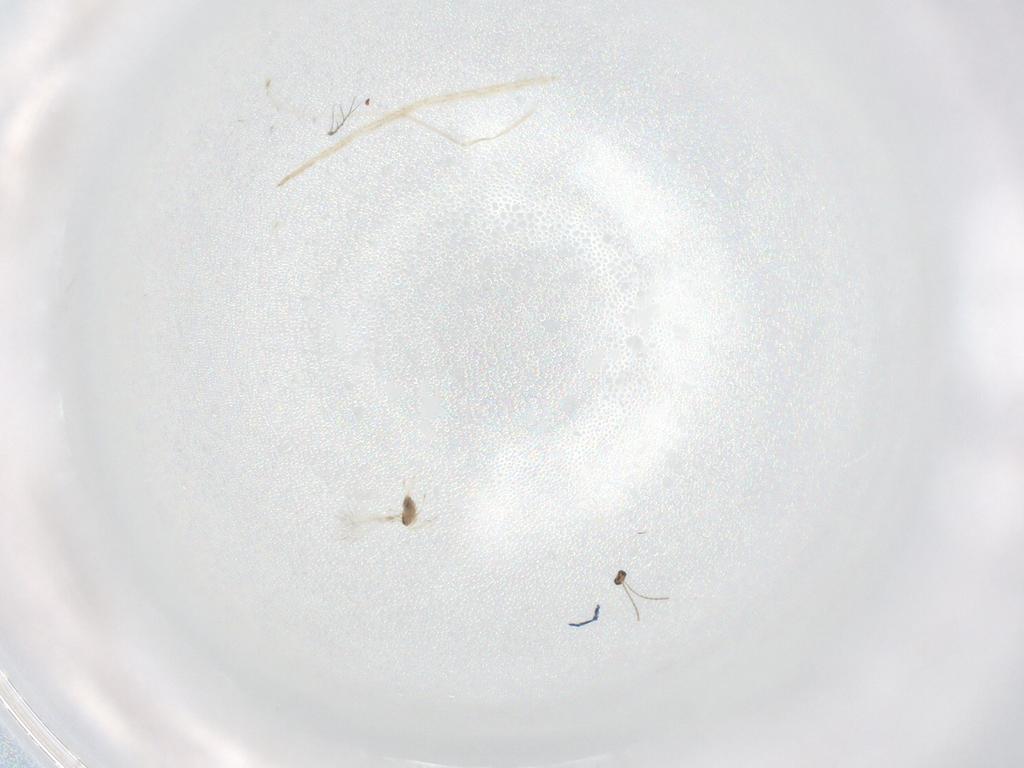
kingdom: Animalia
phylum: Arthropoda
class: Insecta
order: Hymenoptera
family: Mymaridae
